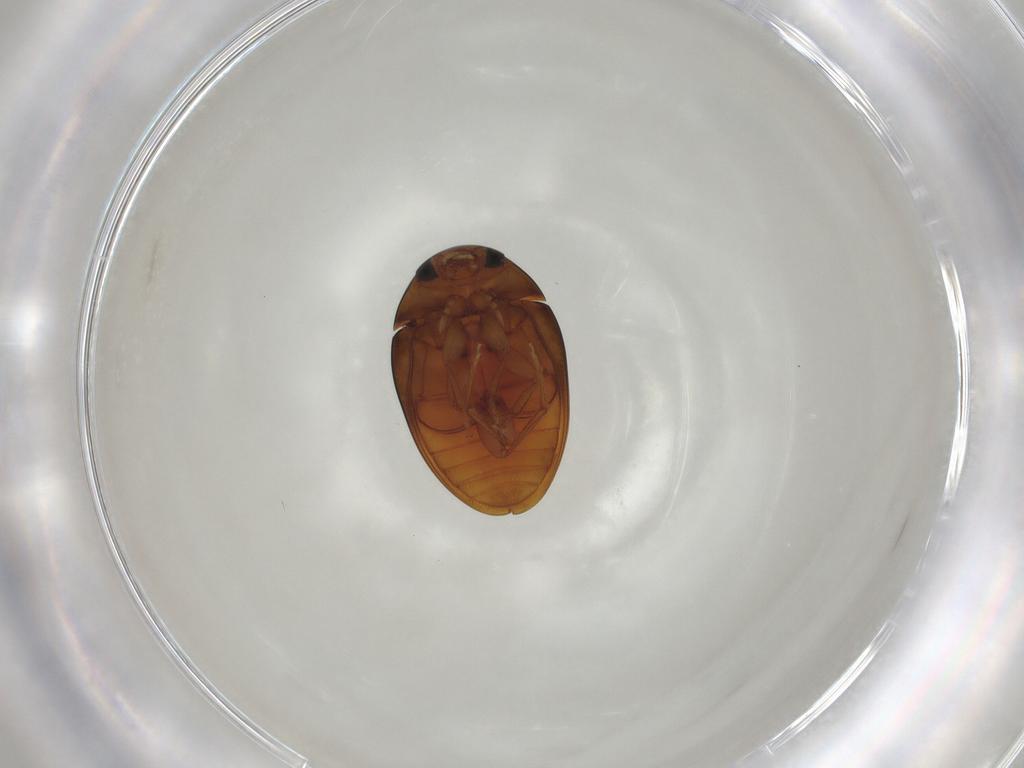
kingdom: Animalia
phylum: Arthropoda
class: Insecta
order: Coleoptera
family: Phalacridae
